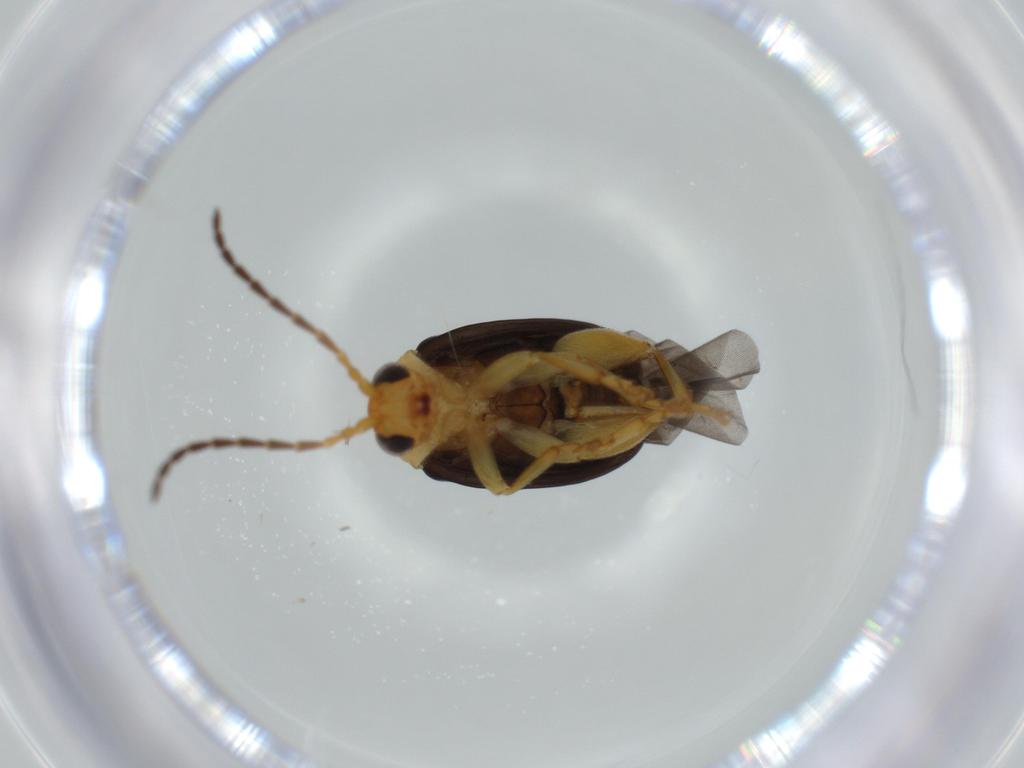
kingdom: Animalia
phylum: Arthropoda
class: Insecta
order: Coleoptera
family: Chrysomelidae
